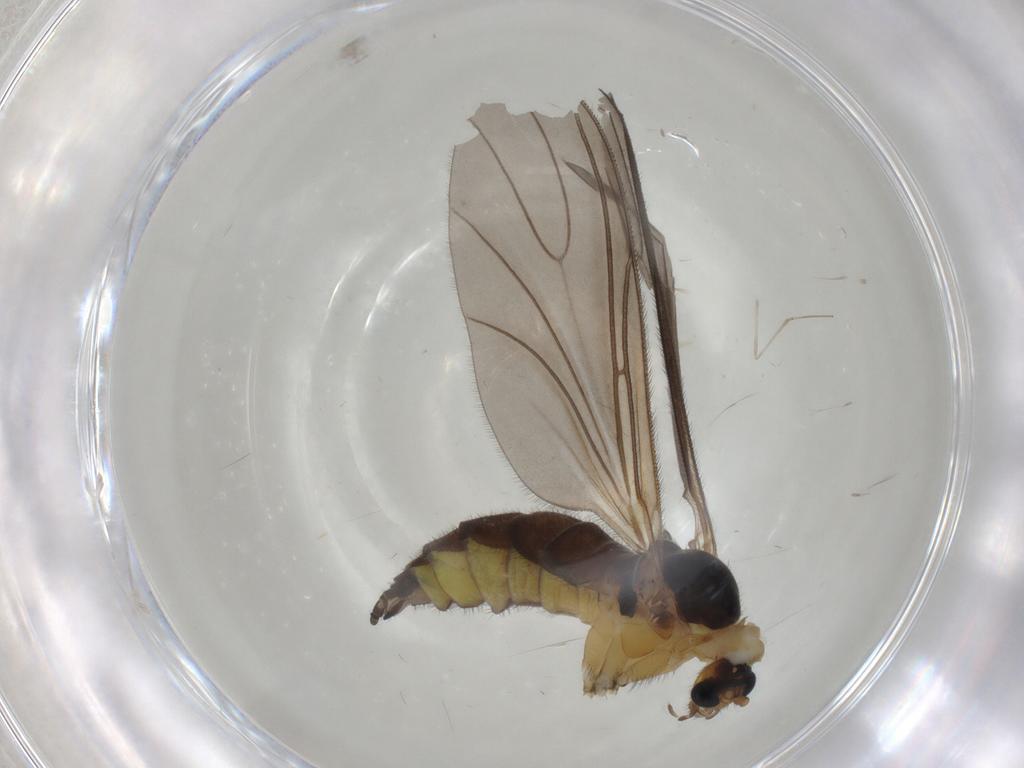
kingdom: Animalia
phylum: Arthropoda
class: Insecta
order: Diptera
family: Sciaridae
